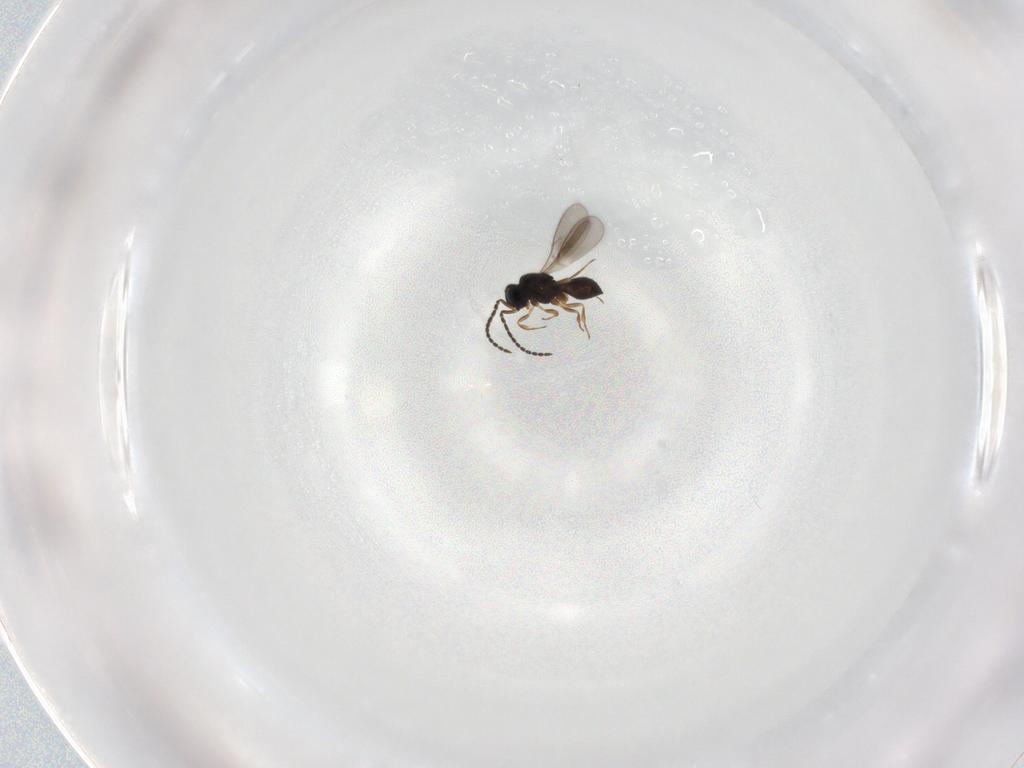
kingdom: Animalia
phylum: Arthropoda
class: Insecta
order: Hymenoptera
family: Scelionidae
